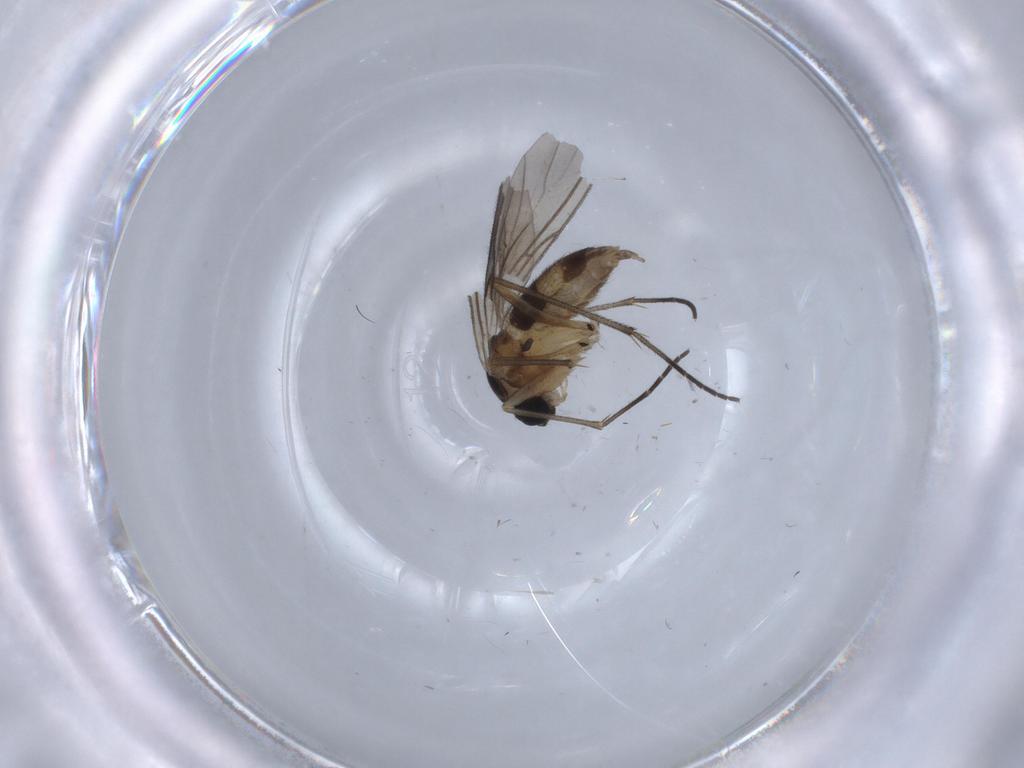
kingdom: Animalia
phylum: Arthropoda
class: Insecta
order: Diptera
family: Sciaridae
